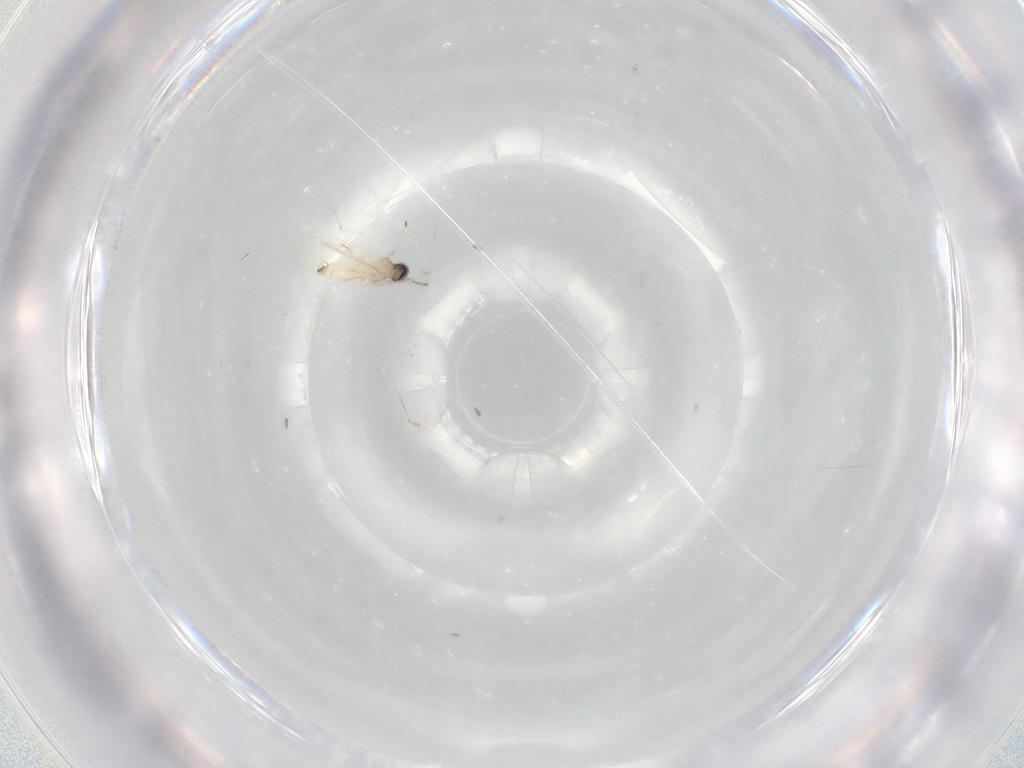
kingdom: Animalia
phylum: Arthropoda
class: Insecta
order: Diptera
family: Cecidomyiidae
